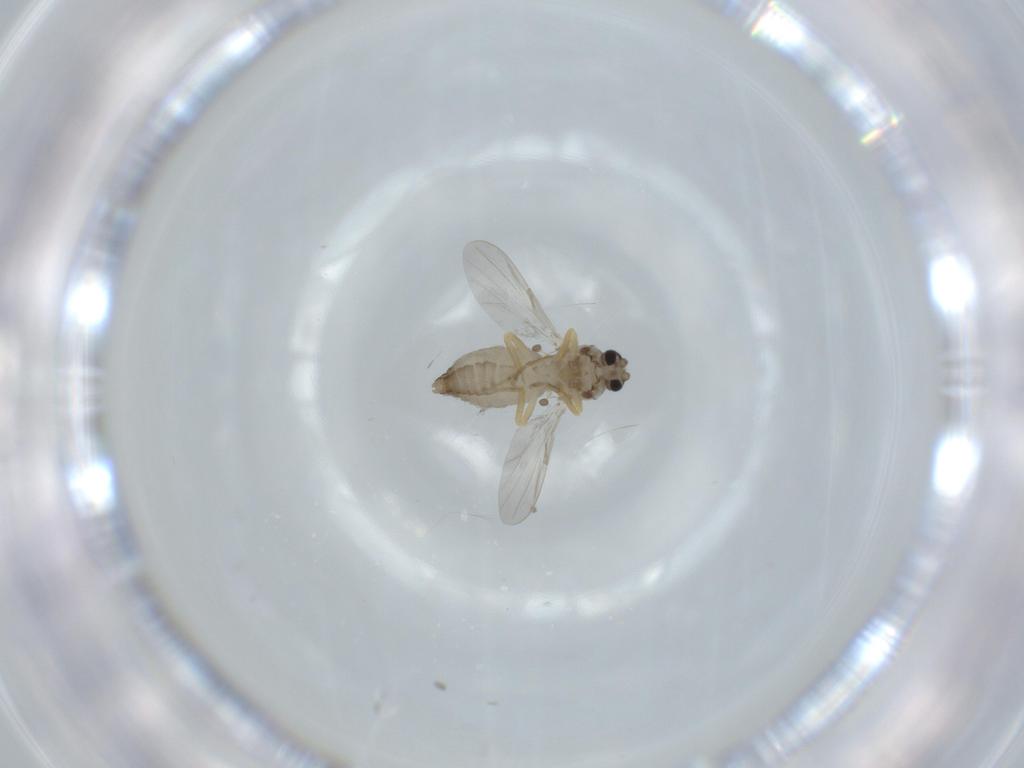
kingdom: Animalia
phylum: Arthropoda
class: Insecta
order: Diptera
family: Ceratopogonidae
